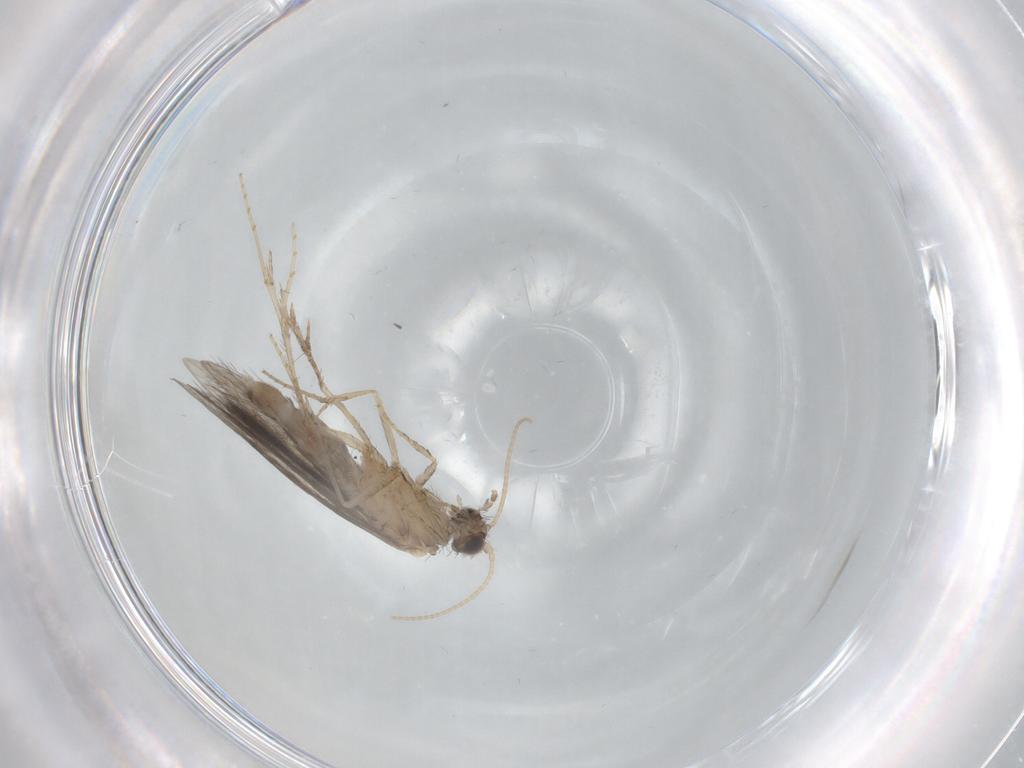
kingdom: Animalia
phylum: Arthropoda
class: Insecta
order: Trichoptera
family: Hydroptilidae
